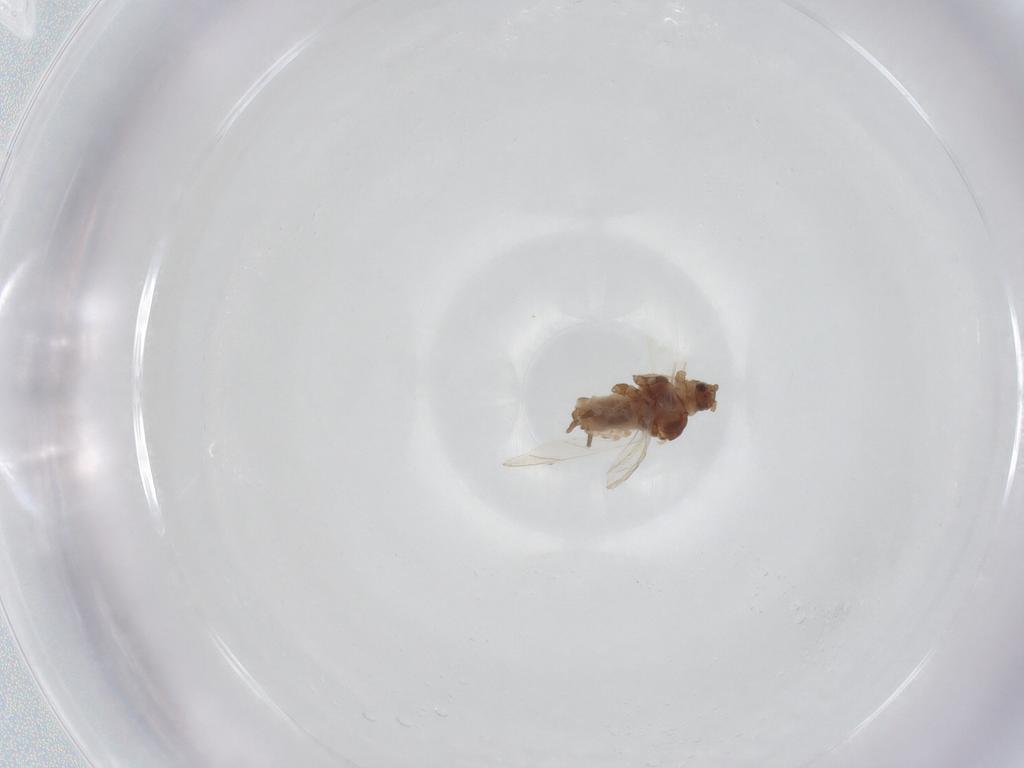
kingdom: Animalia
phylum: Arthropoda
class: Insecta
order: Hemiptera
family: Aphididae
